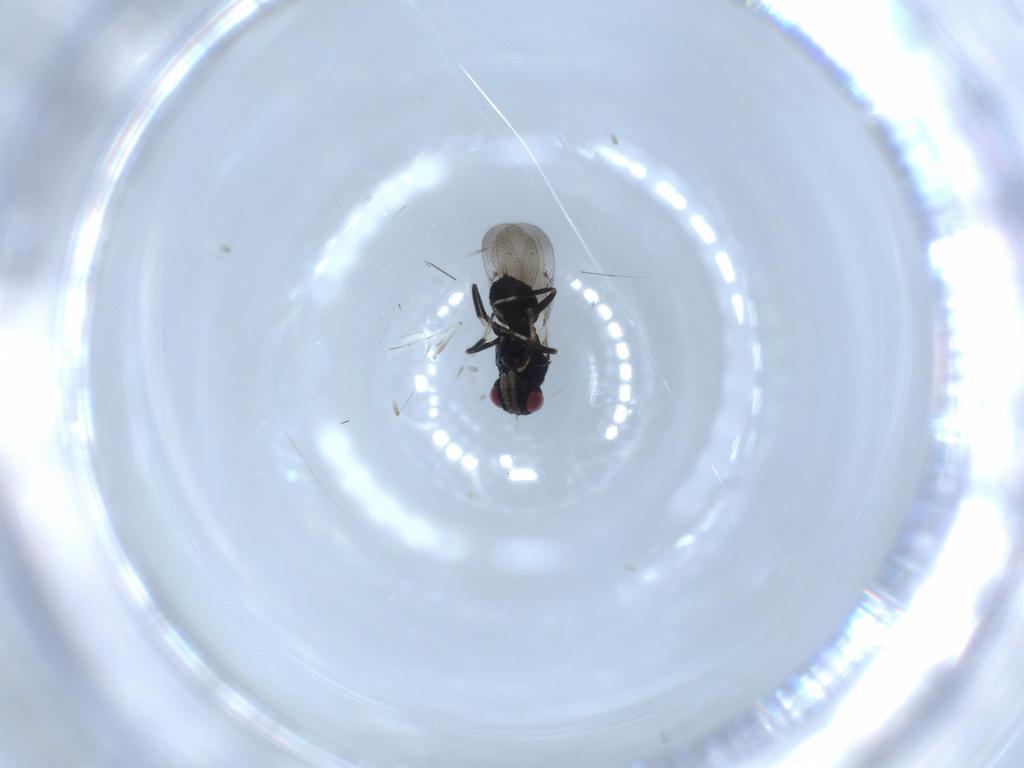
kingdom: Animalia
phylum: Arthropoda
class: Insecta
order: Hymenoptera
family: Eulophidae
